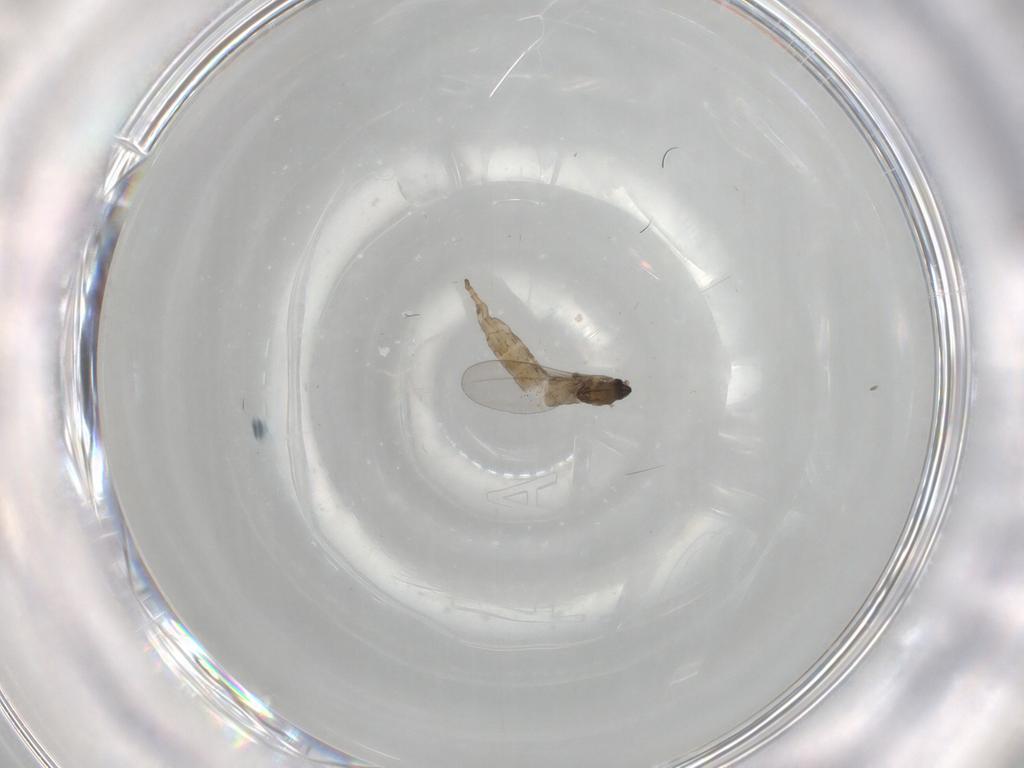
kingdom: Animalia
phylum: Arthropoda
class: Insecta
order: Diptera
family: Cecidomyiidae
